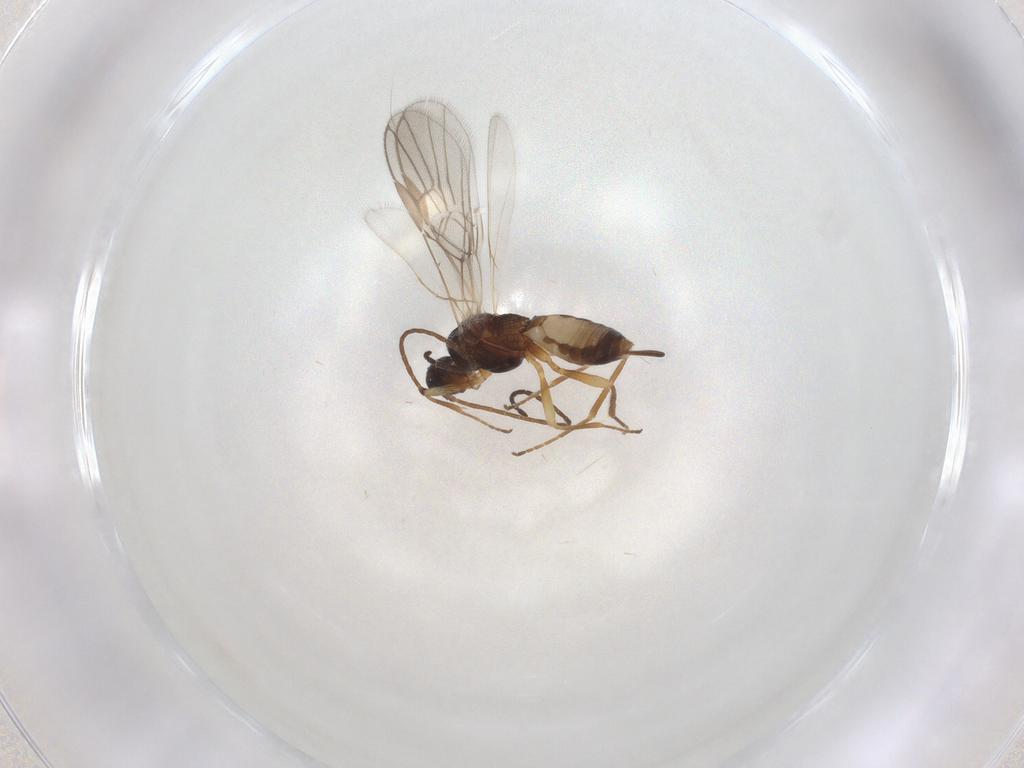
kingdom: Animalia
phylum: Arthropoda
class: Insecta
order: Hymenoptera
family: Braconidae
